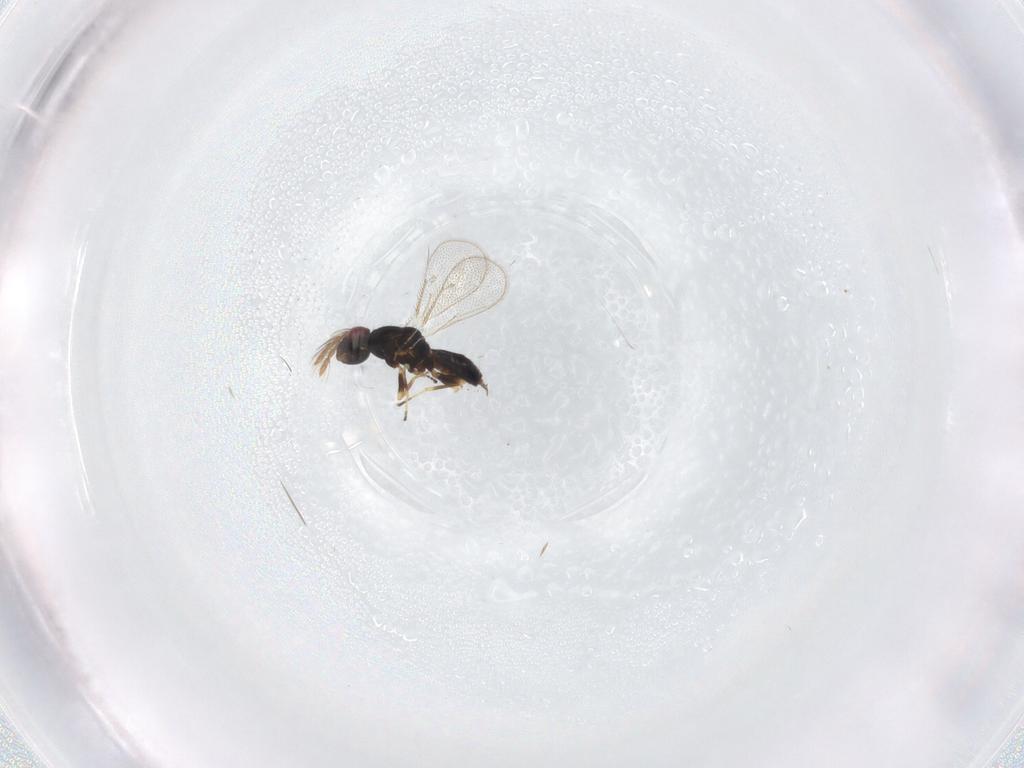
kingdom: Animalia
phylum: Arthropoda
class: Insecta
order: Hymenoptera
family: Eulophidae
